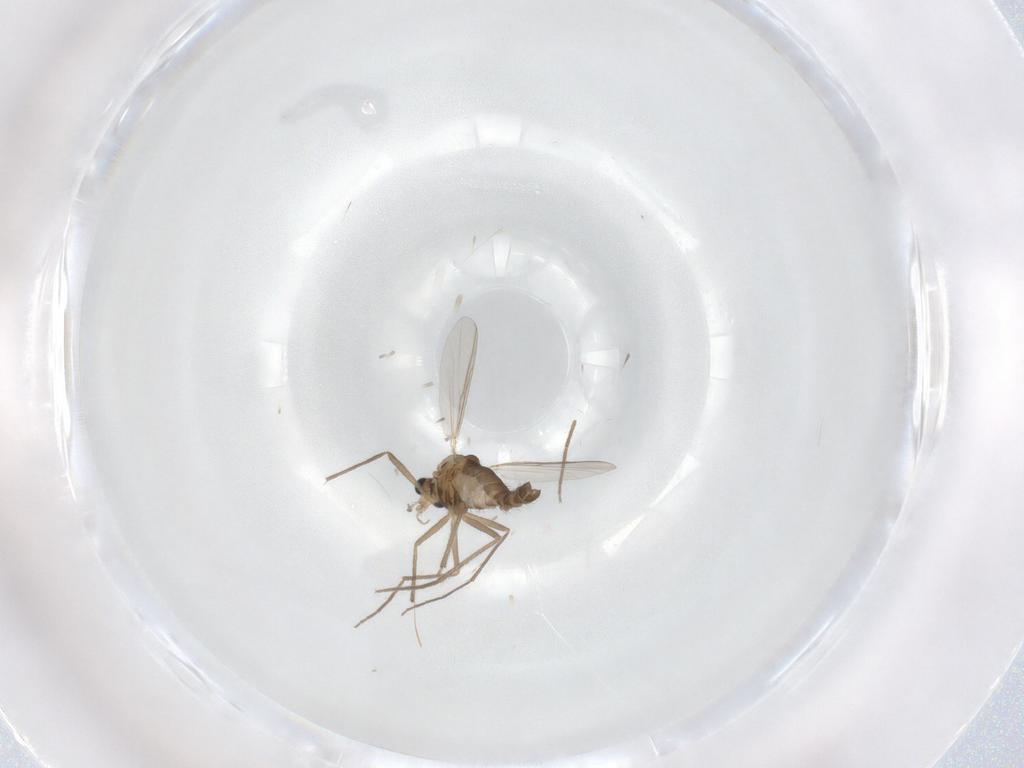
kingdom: Animalia
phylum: Arthropoda
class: Insecta
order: Diptera
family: Chironomidae
